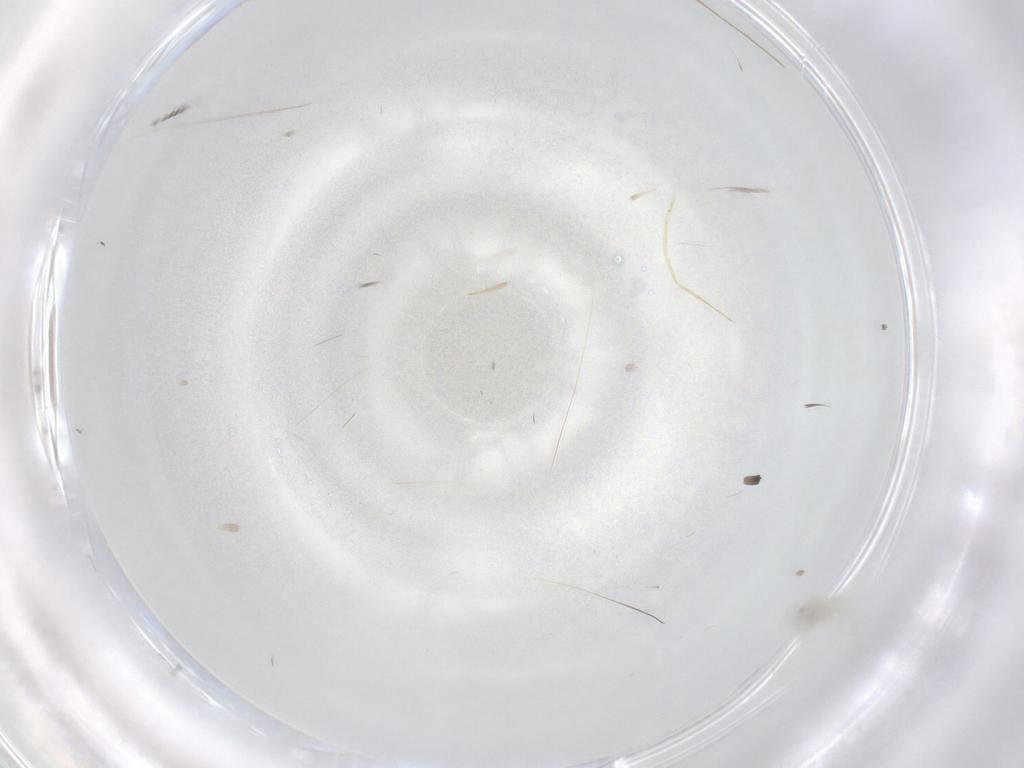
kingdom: Animalia
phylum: Arthropoda
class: Insecta
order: Diptera
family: Cecidomyiidae
